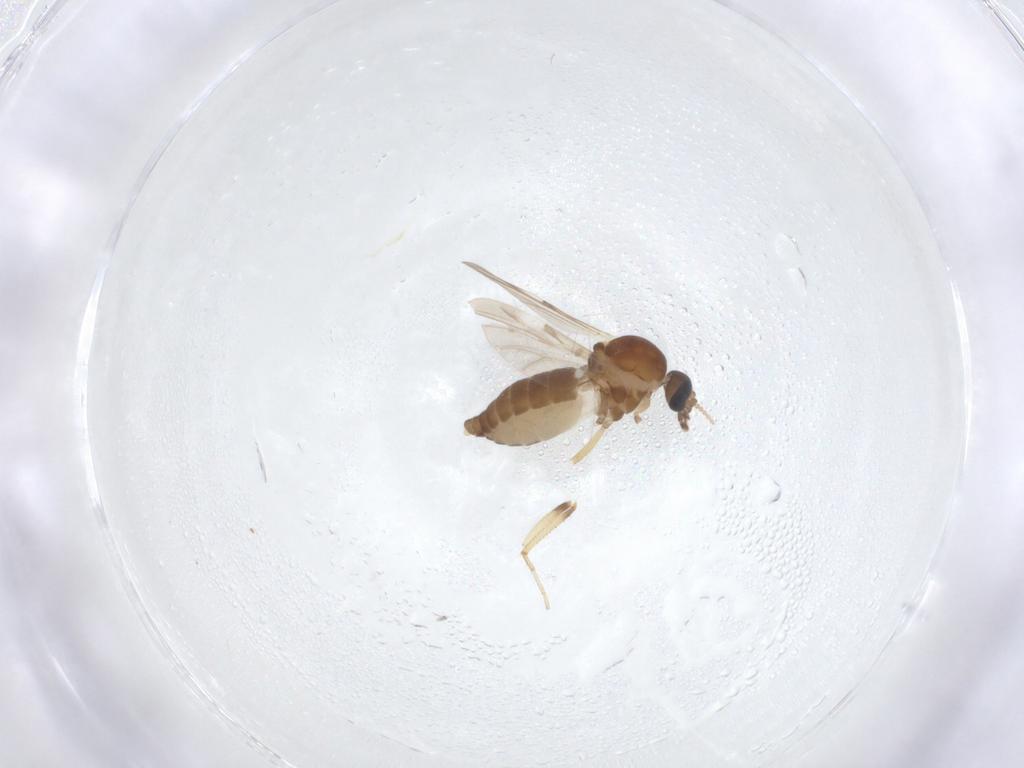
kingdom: Animalia
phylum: Arthropoda
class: Insecta
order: Diptera
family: Ceratopogonidae
